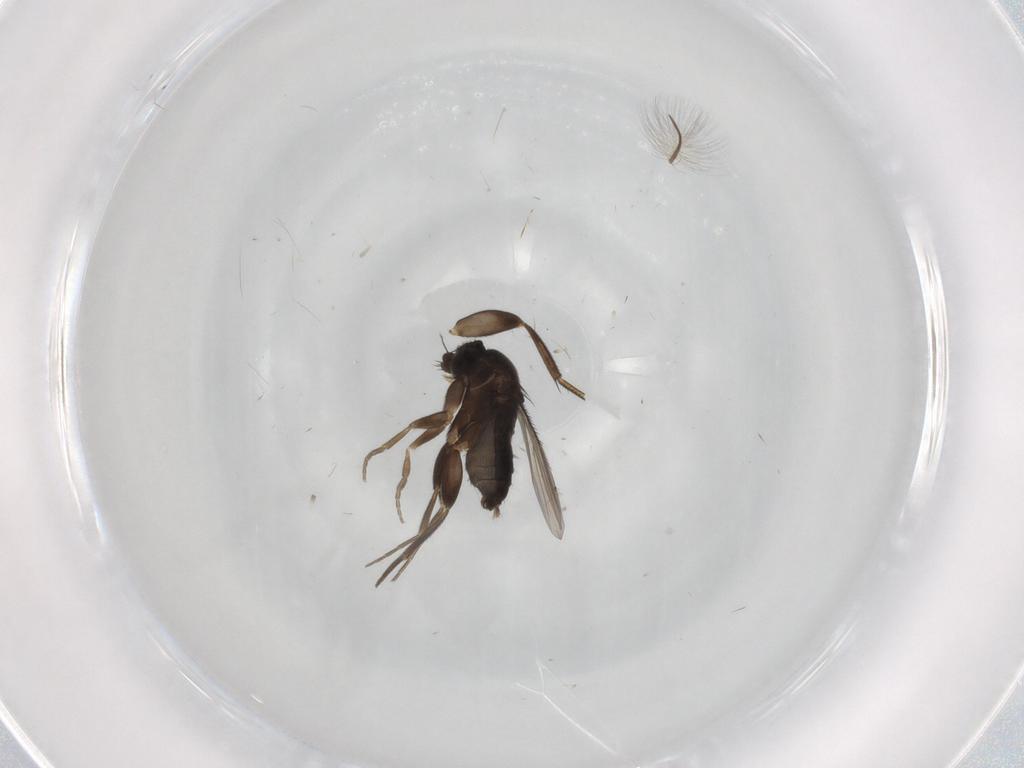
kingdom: Animalia
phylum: Arthropoda
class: Insecta
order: Diptera
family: Phoridae
